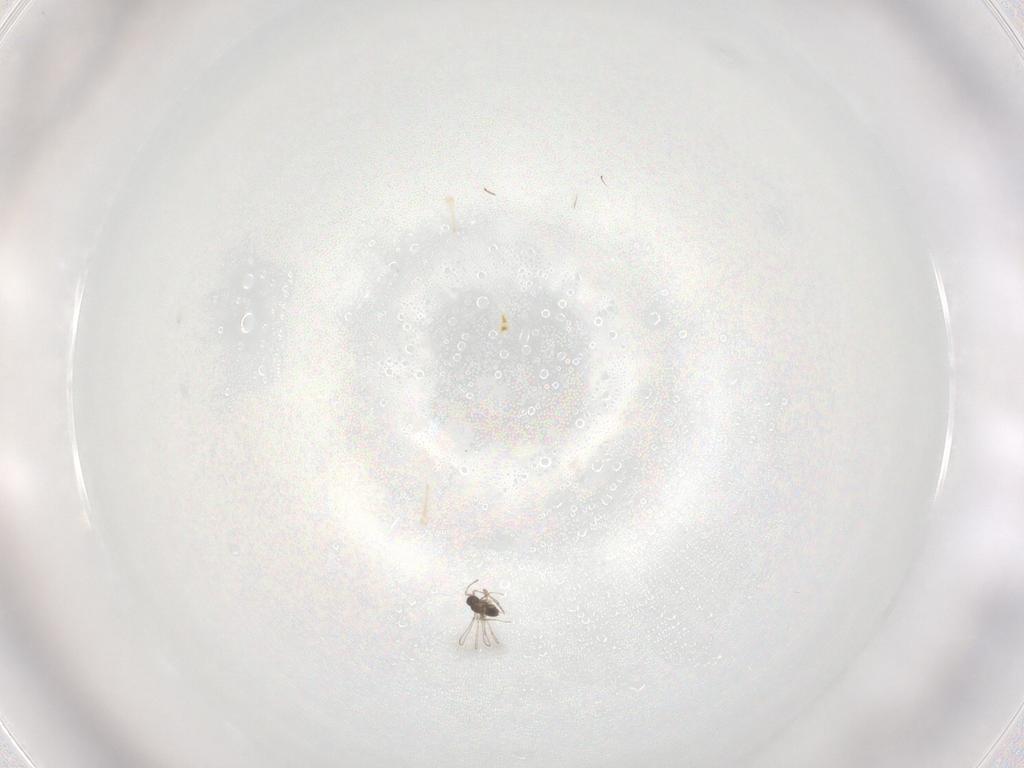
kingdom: Animalia
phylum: Arthropoda
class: Insecta
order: Hymenoptera
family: Mymaridae
